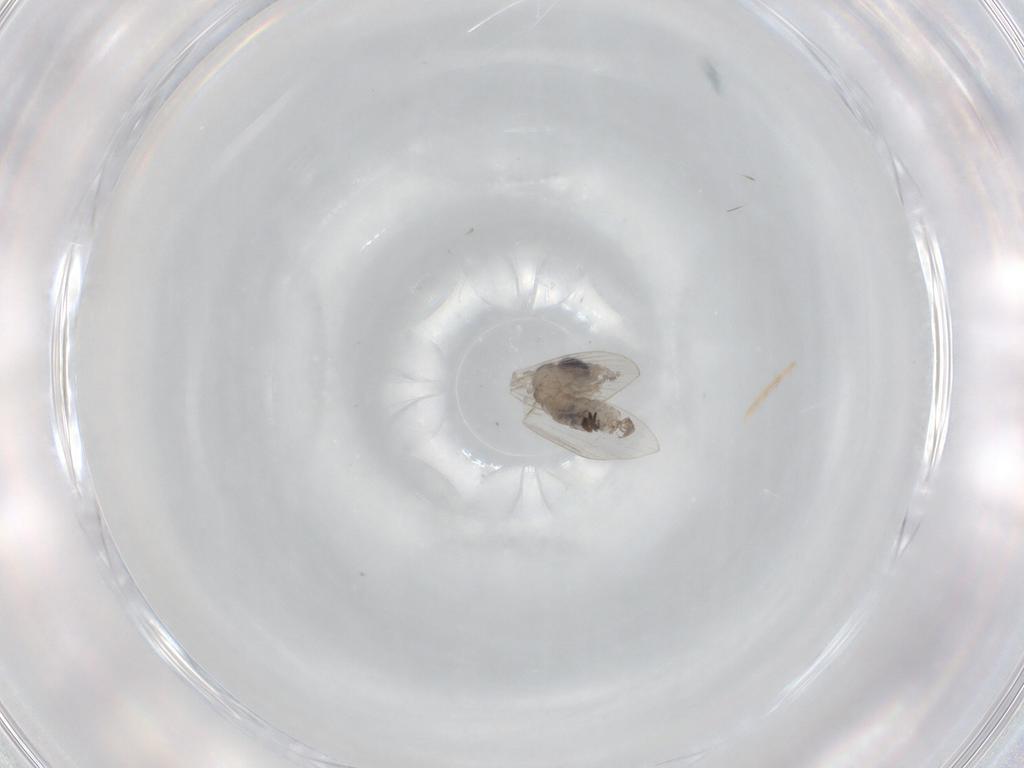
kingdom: Animalia
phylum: Arthropoda
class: Insecta
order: Diptera
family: Psychodidae
